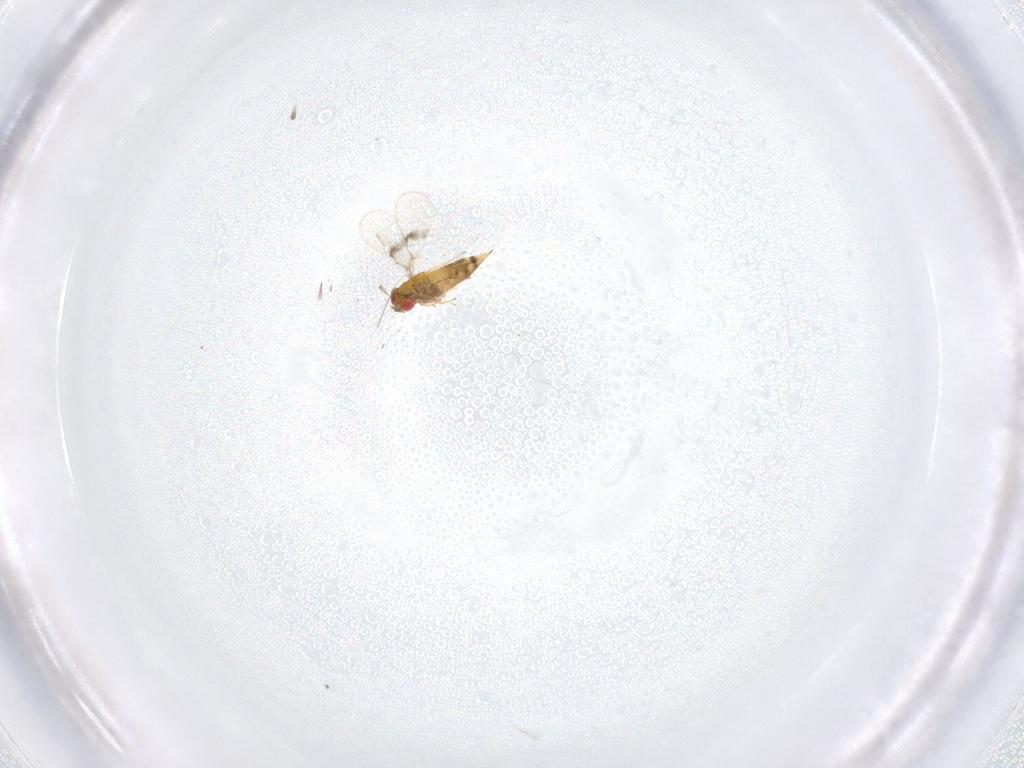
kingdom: Animalia
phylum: Arthropoda
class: Insecta
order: Hymenoptera
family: Trichogrammatidae
